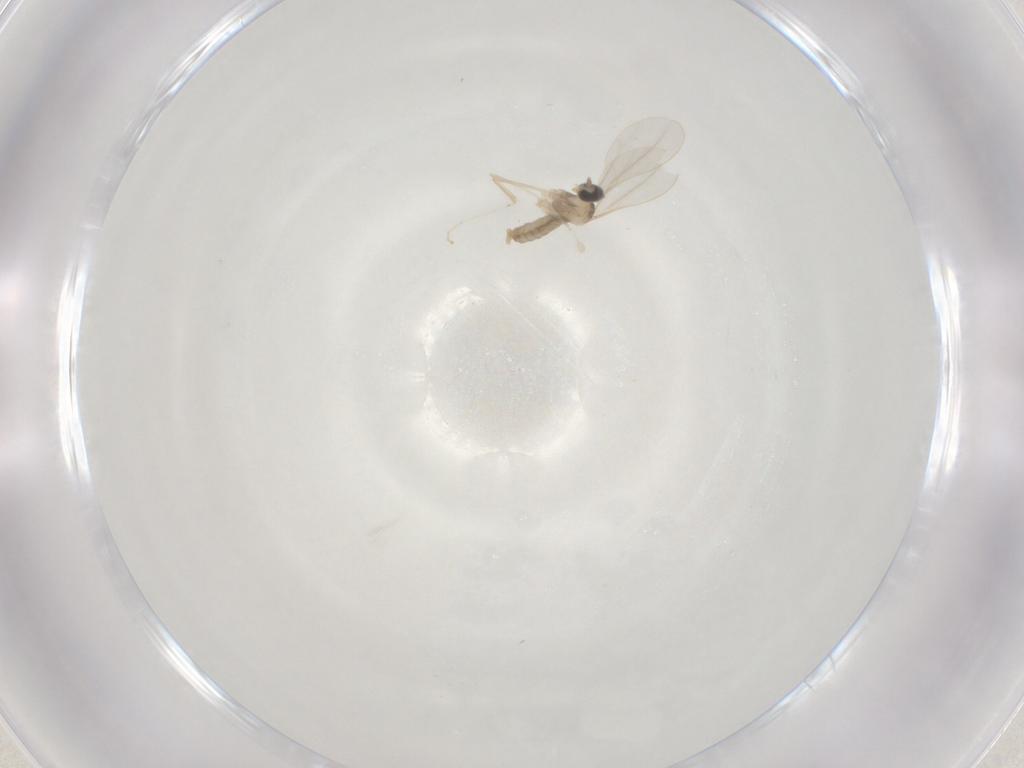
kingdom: Animalia
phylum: Arthropoda
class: Insecta
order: Diptera
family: Cecidomyiidae
